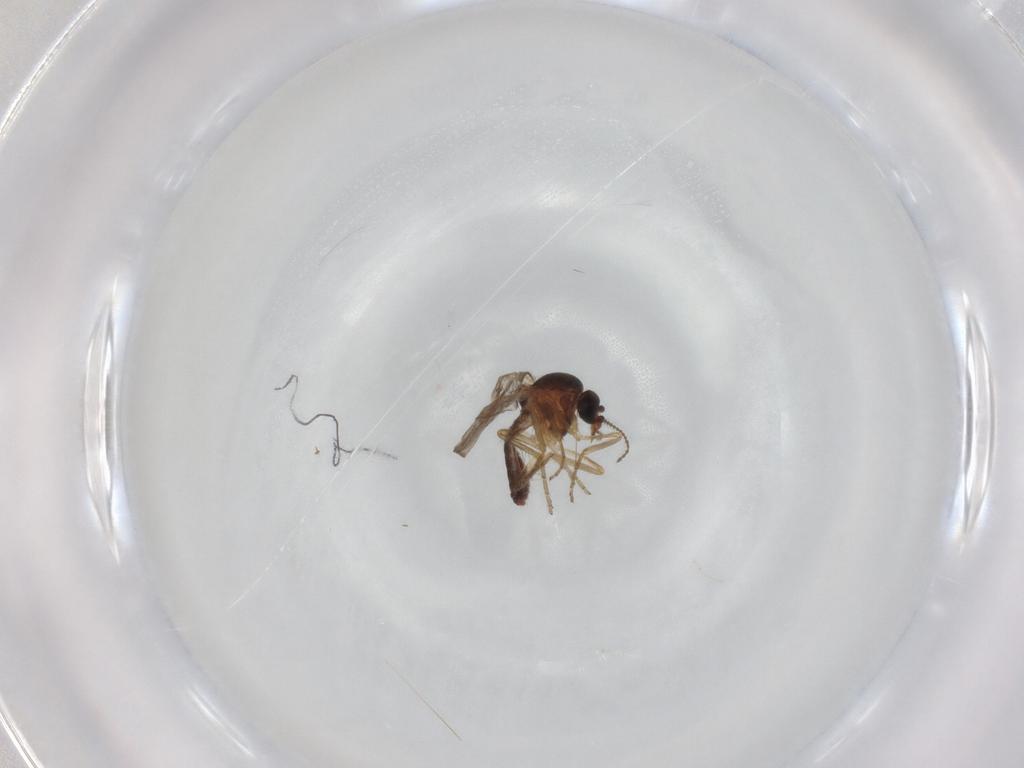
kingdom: Animalia
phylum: Arthropoda
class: Insecta
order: Diptera
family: Ceratopogonidae
